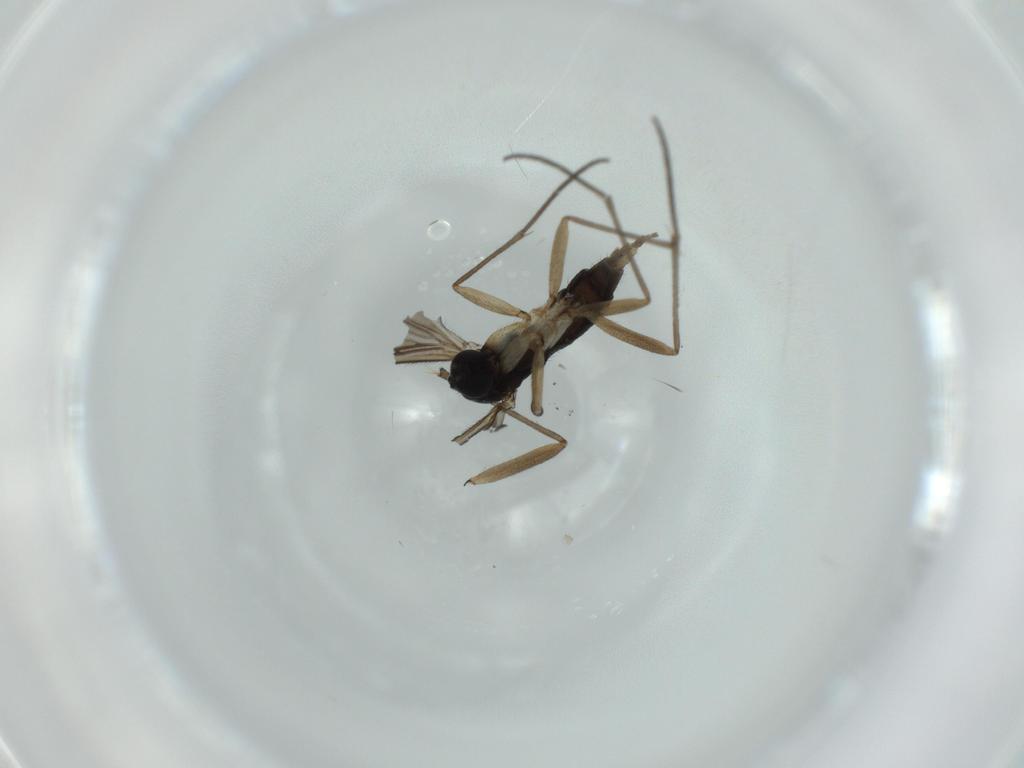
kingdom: Animalia
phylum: Arthropoda
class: Insecta
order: Diptera
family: Sciaridae
